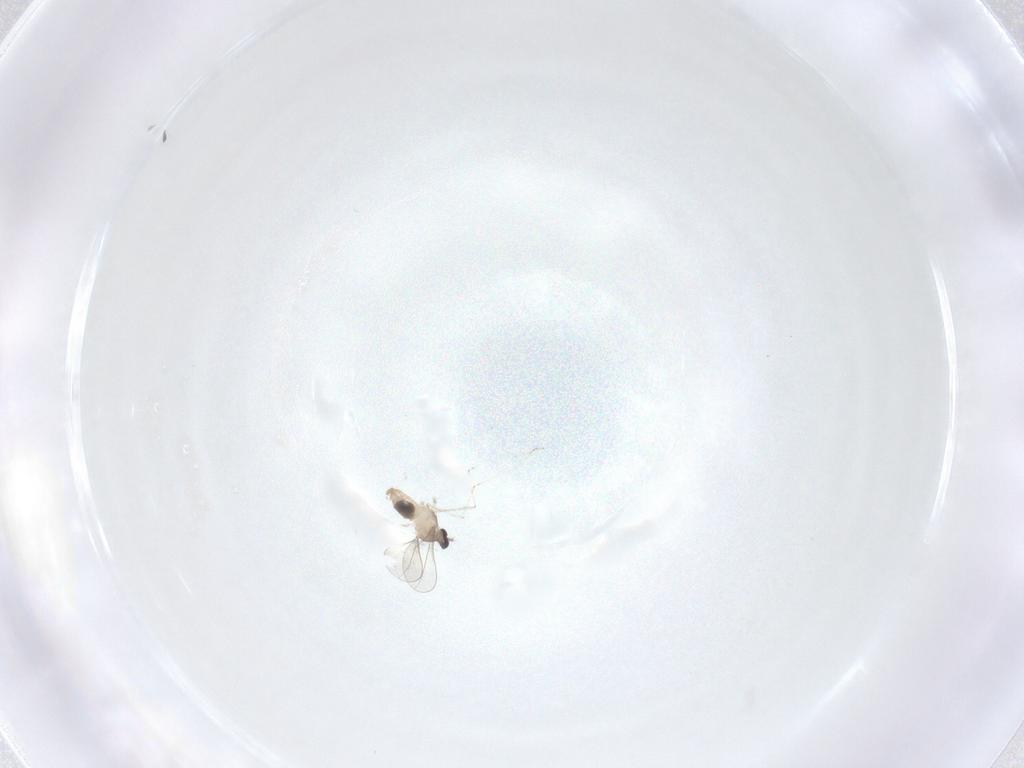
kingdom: Animalia
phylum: Arthropoda
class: Insecta
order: Diptera
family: Cecidomyiidae
